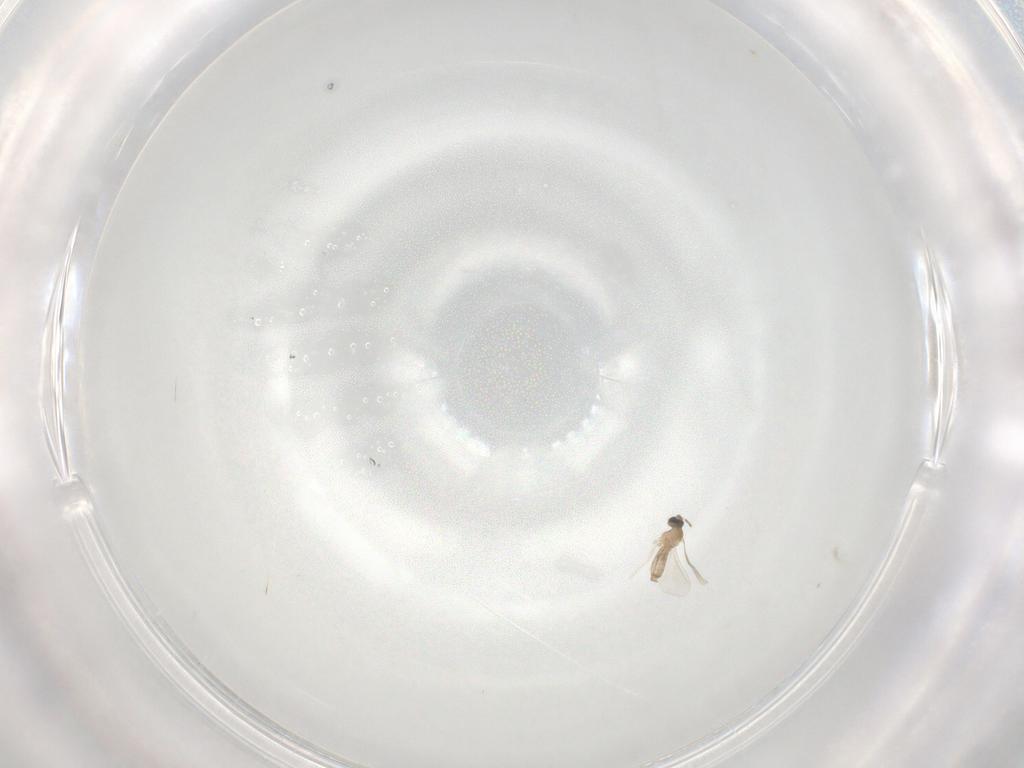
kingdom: Animalia
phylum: Arthropoda
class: Insecta
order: Diptera
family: Cecidomyiidae
